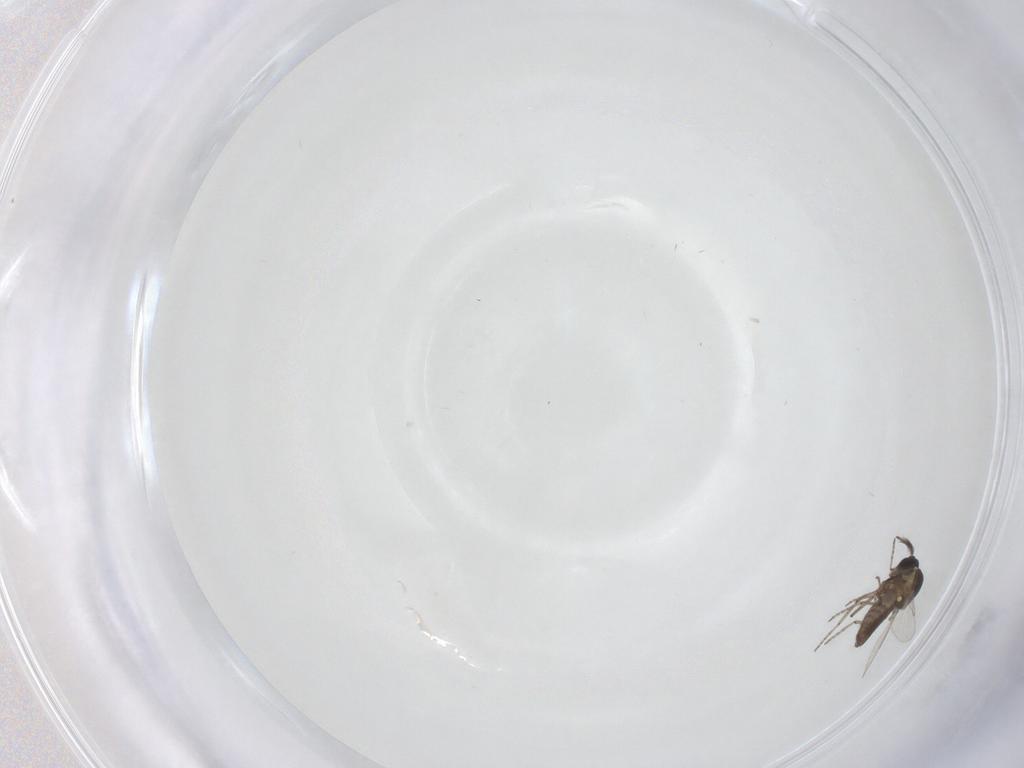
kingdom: Animalia
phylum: Arthropoda
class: Insecta
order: Diptera
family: Ceratopogonidae
